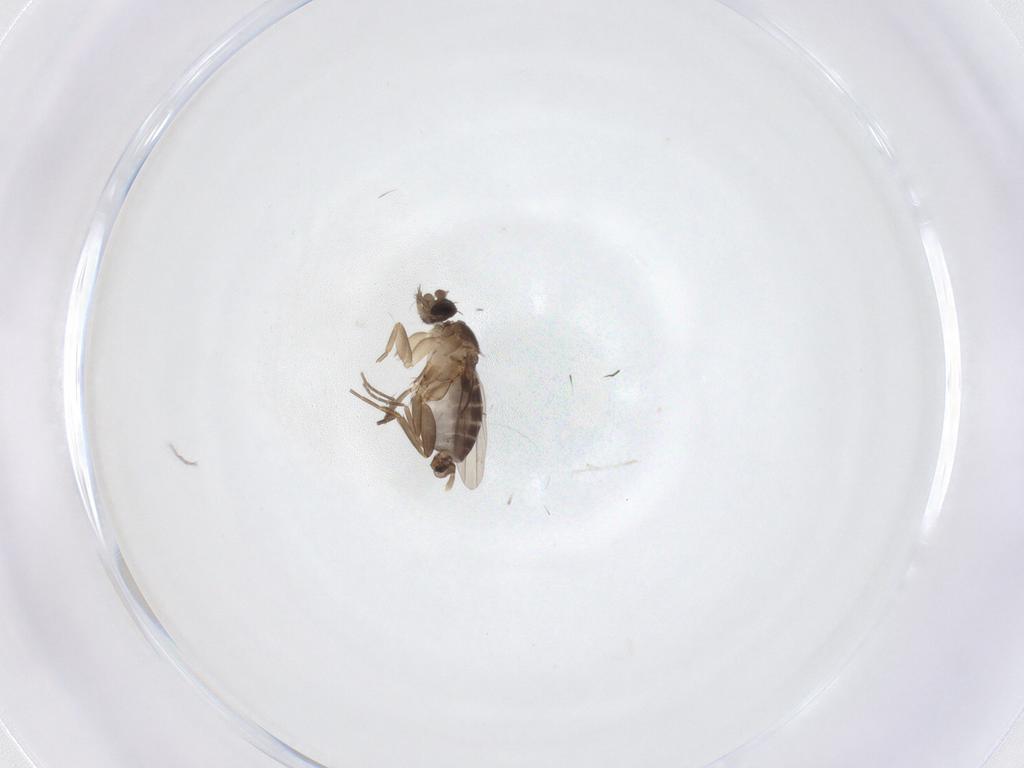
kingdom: Animalia
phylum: Arthropoda
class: Insecta
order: Diptera
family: Phoridae
